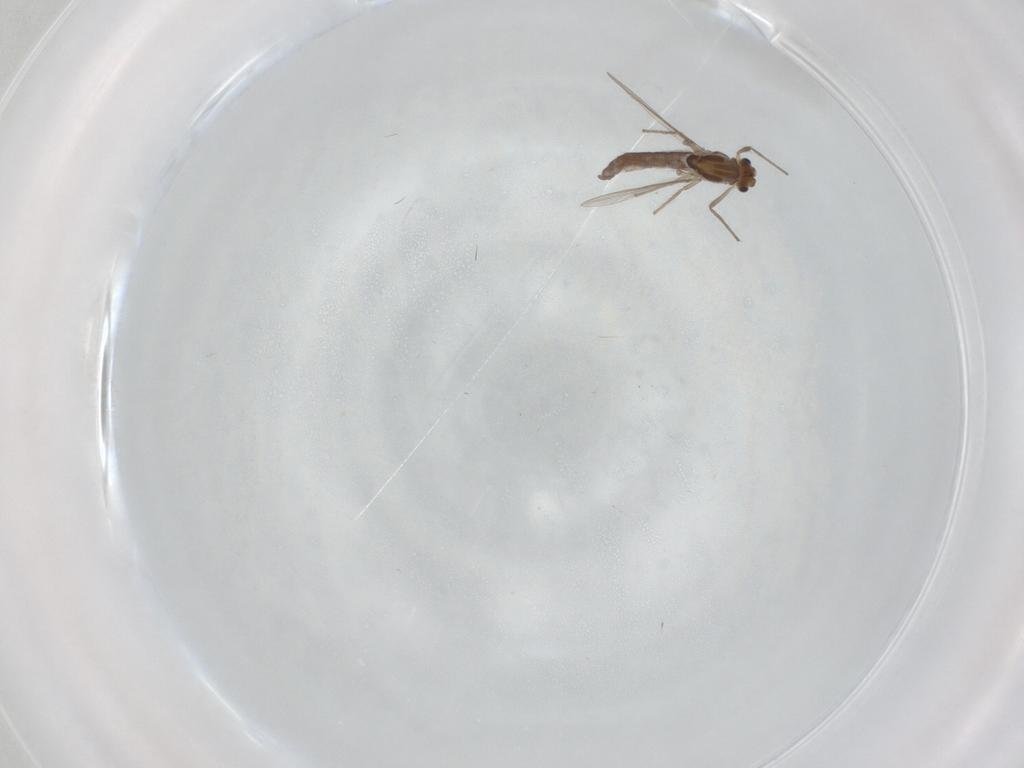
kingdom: Animalia
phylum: Arthropoda
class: Insecta
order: Diptera
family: Chironomidae
